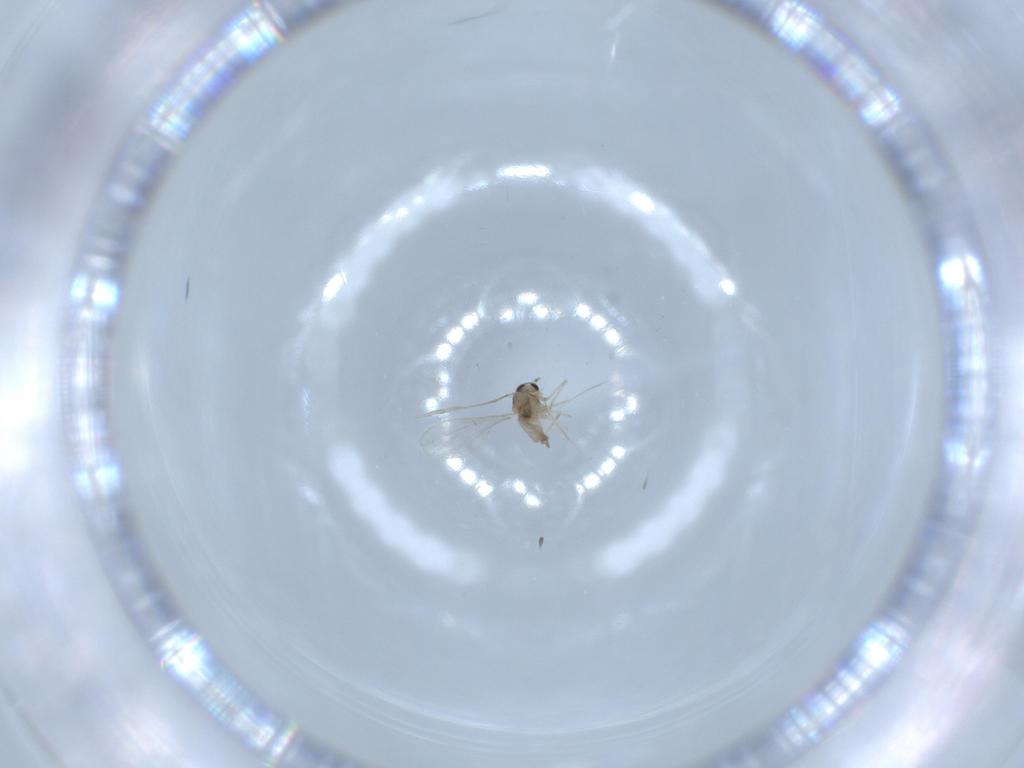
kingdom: Animalia
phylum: Arthropoda
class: Insecta
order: Diptera
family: Cecidomyiidae
